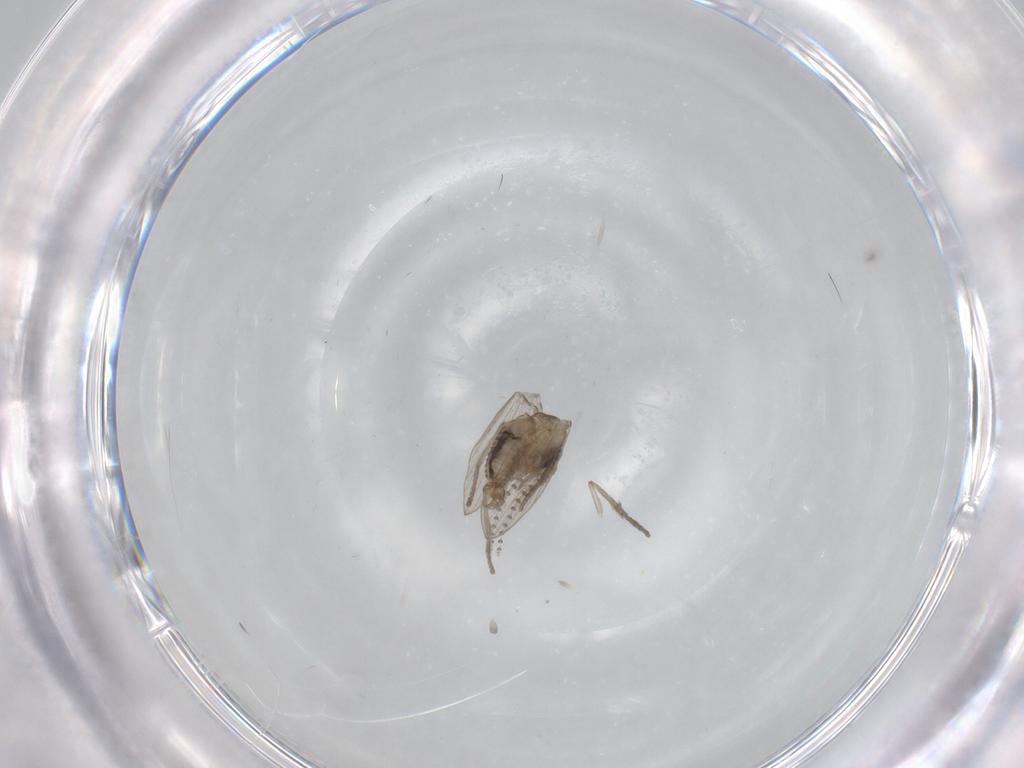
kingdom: Animalia
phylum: Arthropoda
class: Insecta
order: Diptera
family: Psychodidae
